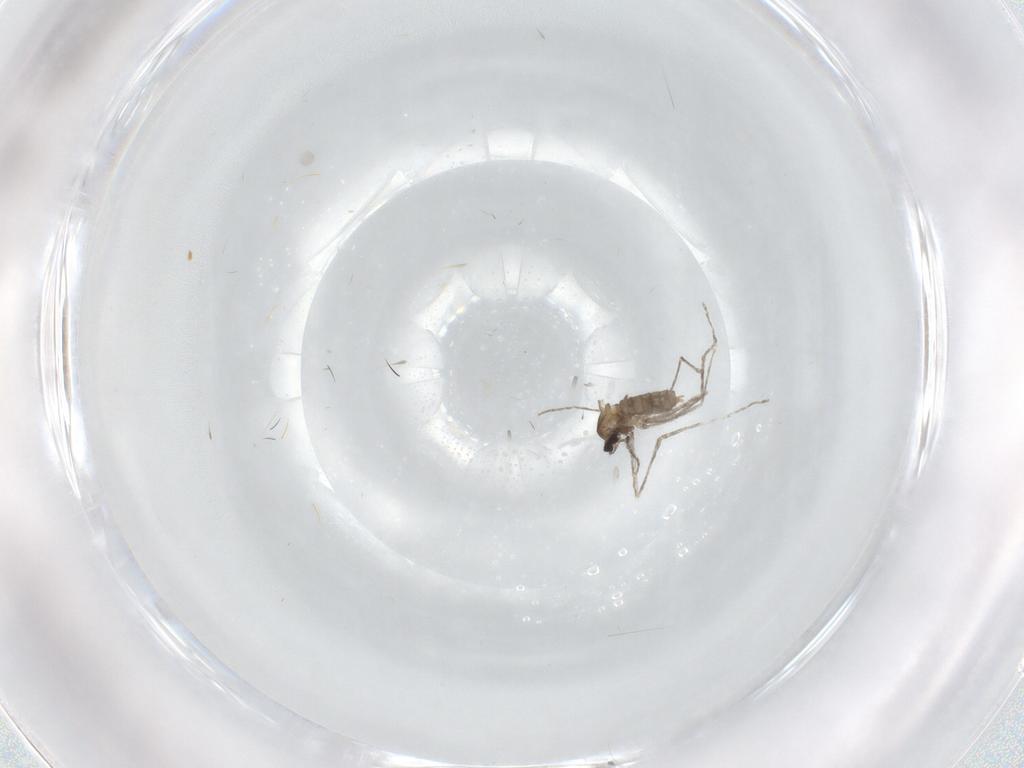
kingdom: Animalia
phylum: Arthropoda
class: Insecta
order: Diptera
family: Cecidomyiidae
